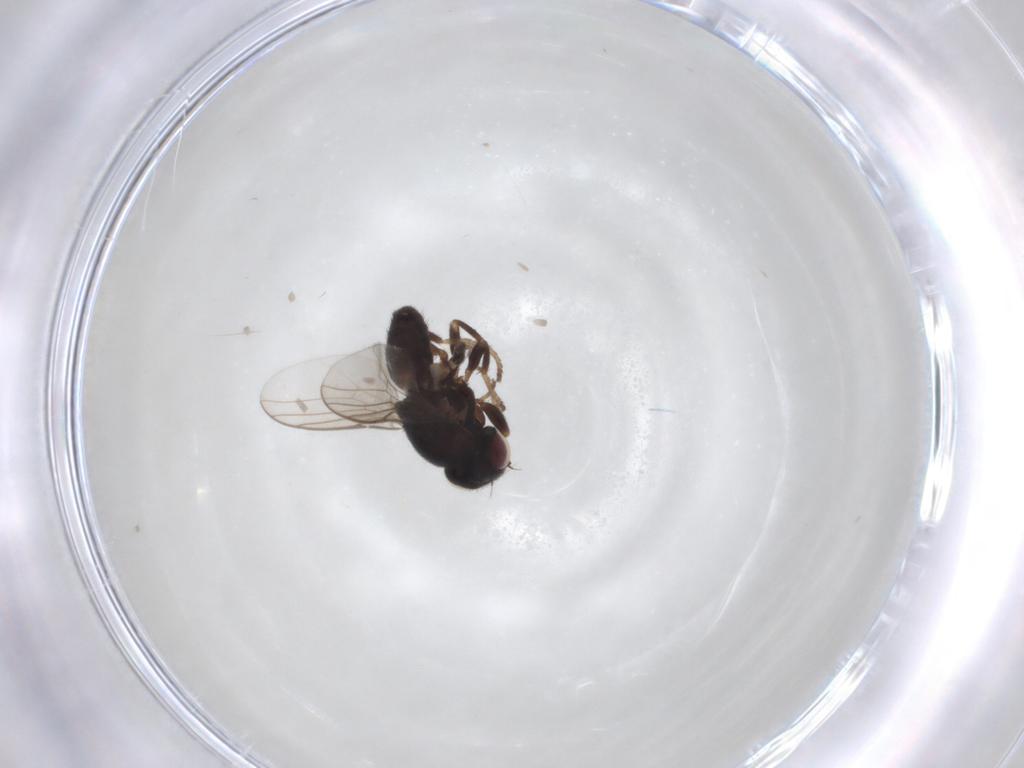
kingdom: Animalia
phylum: Arthropoda
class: Insecta
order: Diptera
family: Chloropidae
